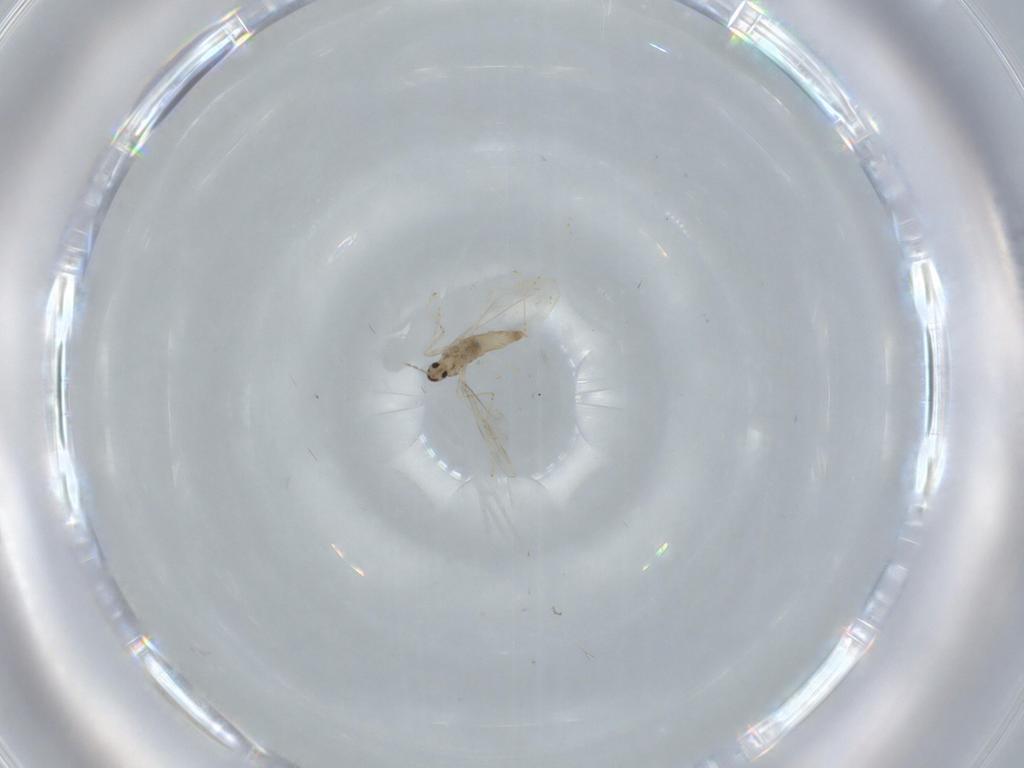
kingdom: Animalia
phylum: Arthropoda
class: Insecta
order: Diptera
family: Cecidomyiidae
